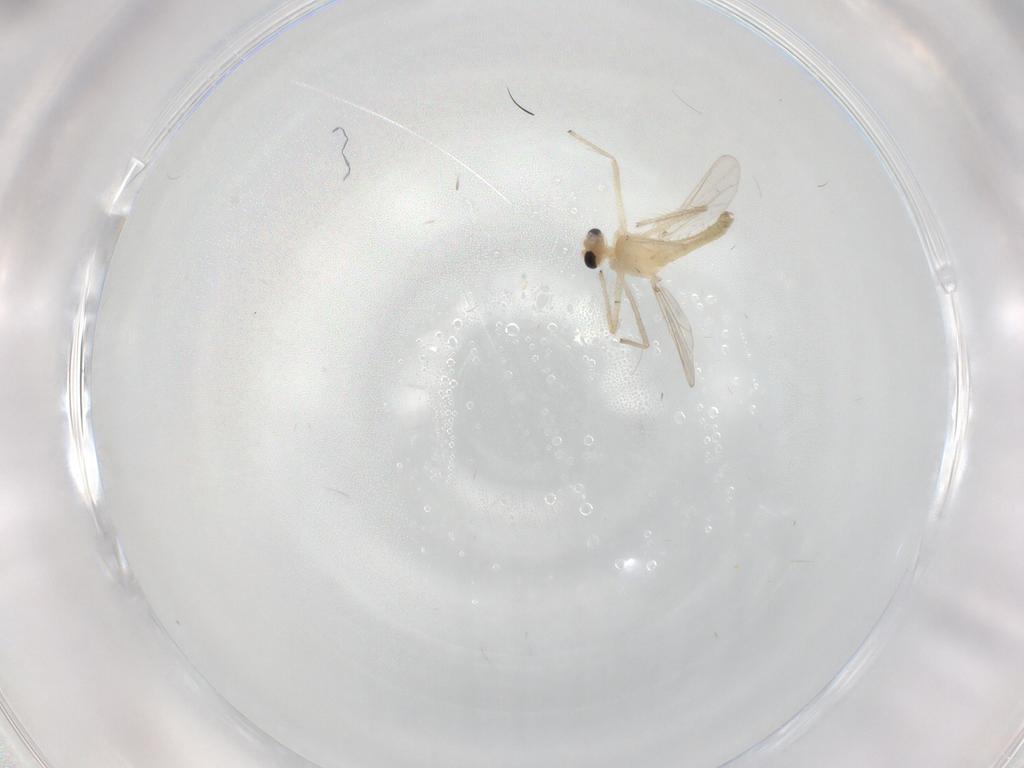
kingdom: Animalia
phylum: Arthropoda
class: Insecta
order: Diptera
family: Chironomidae
